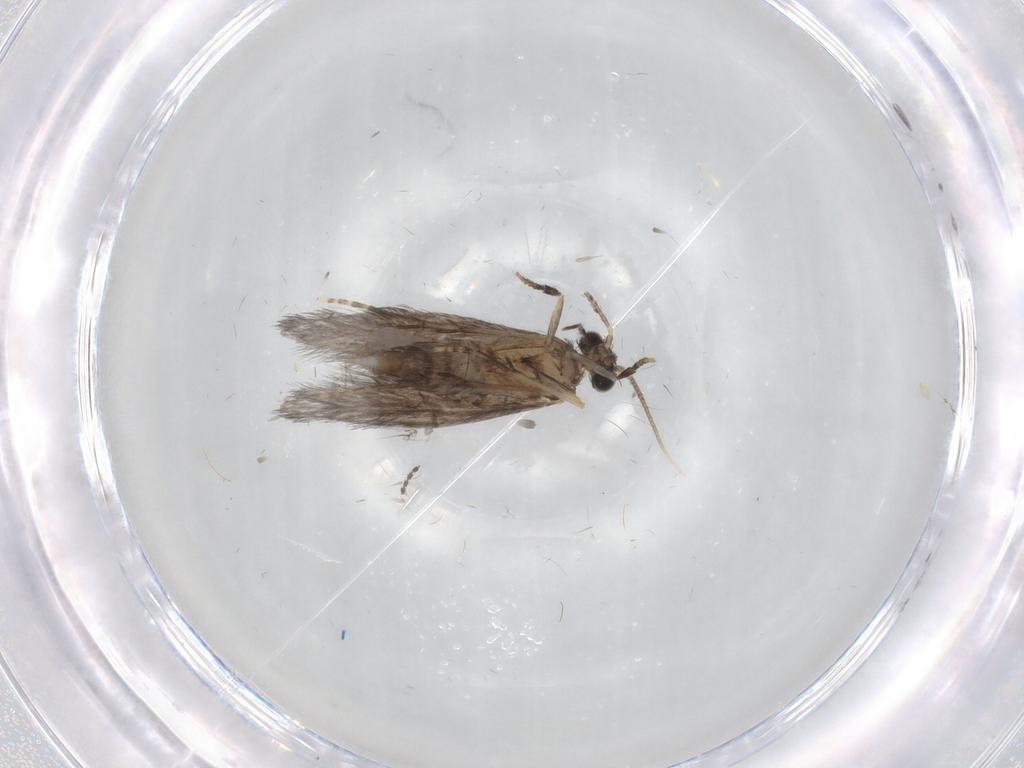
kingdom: Animalia
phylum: Arthropoda
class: Insecta
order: Trichoptera
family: Hydroptilidae
